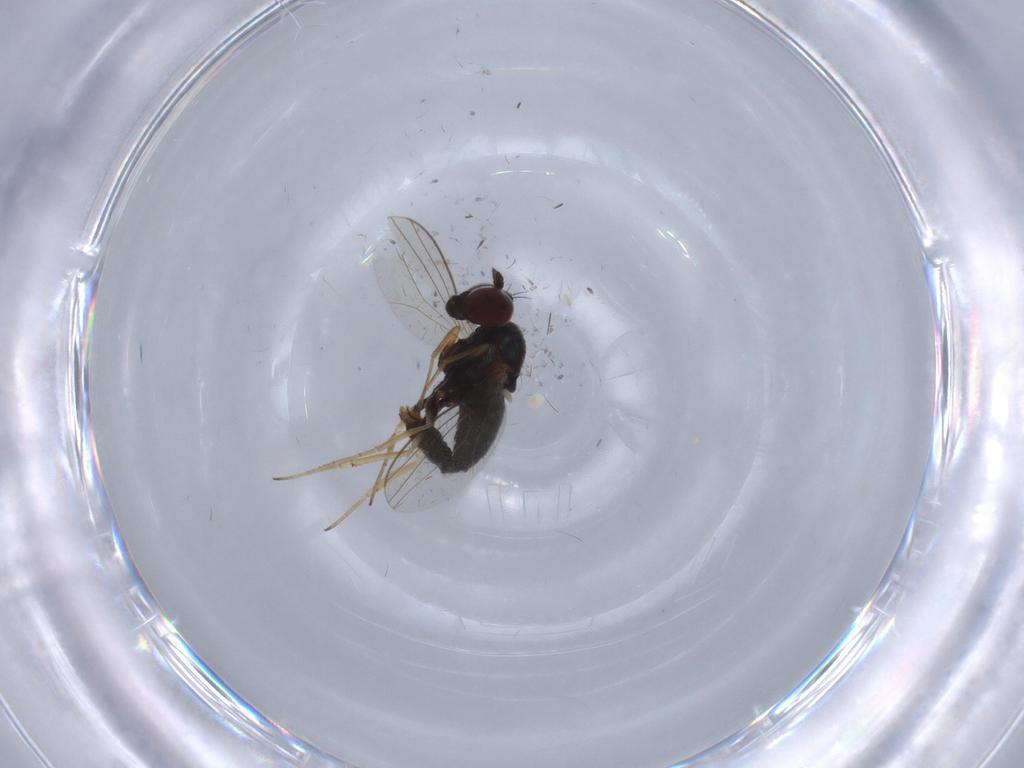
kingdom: Animalia
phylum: Arthropoda
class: Insecta
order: Diptera
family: Dolichopodidae
